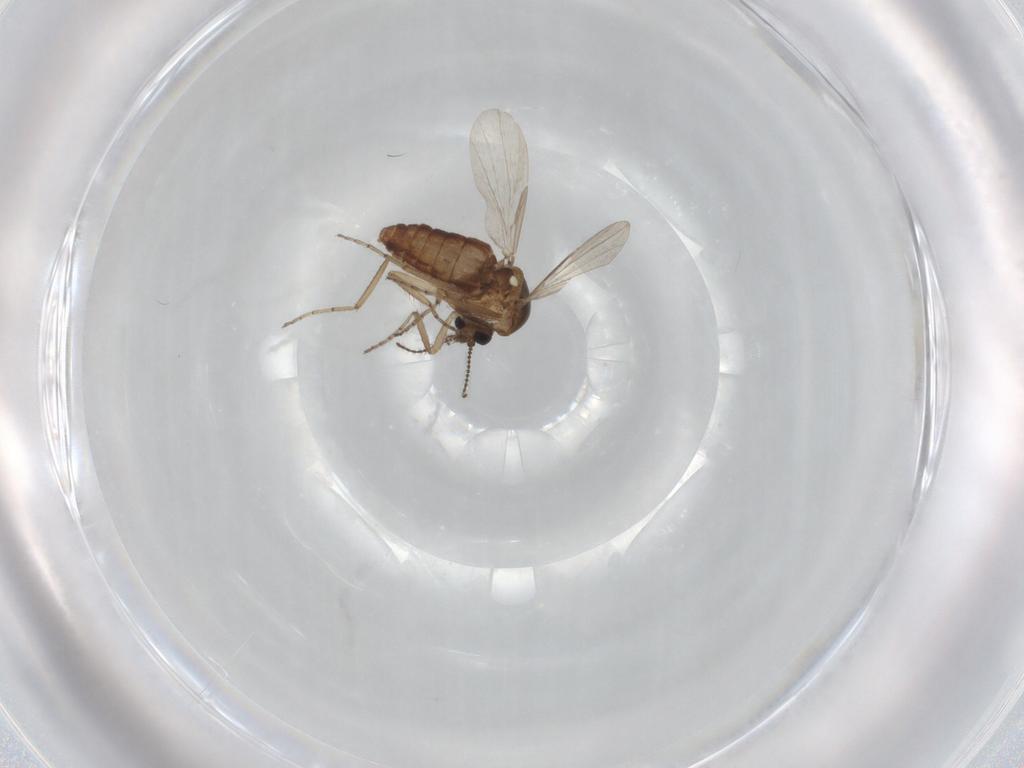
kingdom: Animalia
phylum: Arthropoda
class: Insecta
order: Diptera
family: Ceratopogonidae
